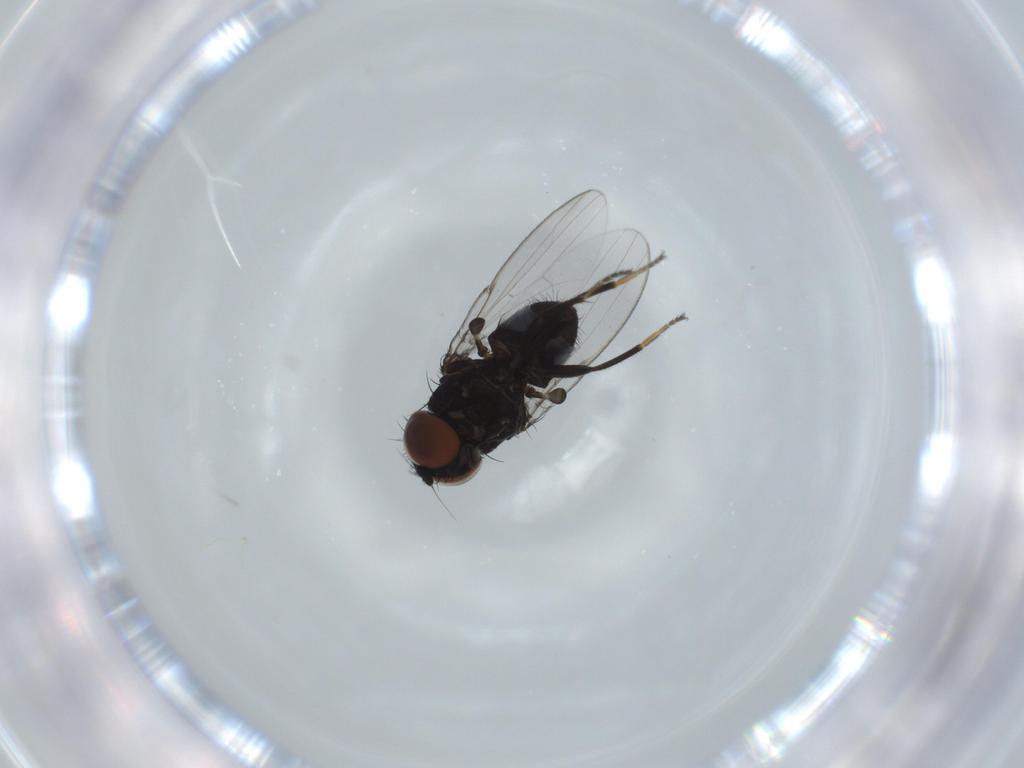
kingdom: Animalia
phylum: Arthropoda
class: Insecta
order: Diptera
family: Milichiidae
